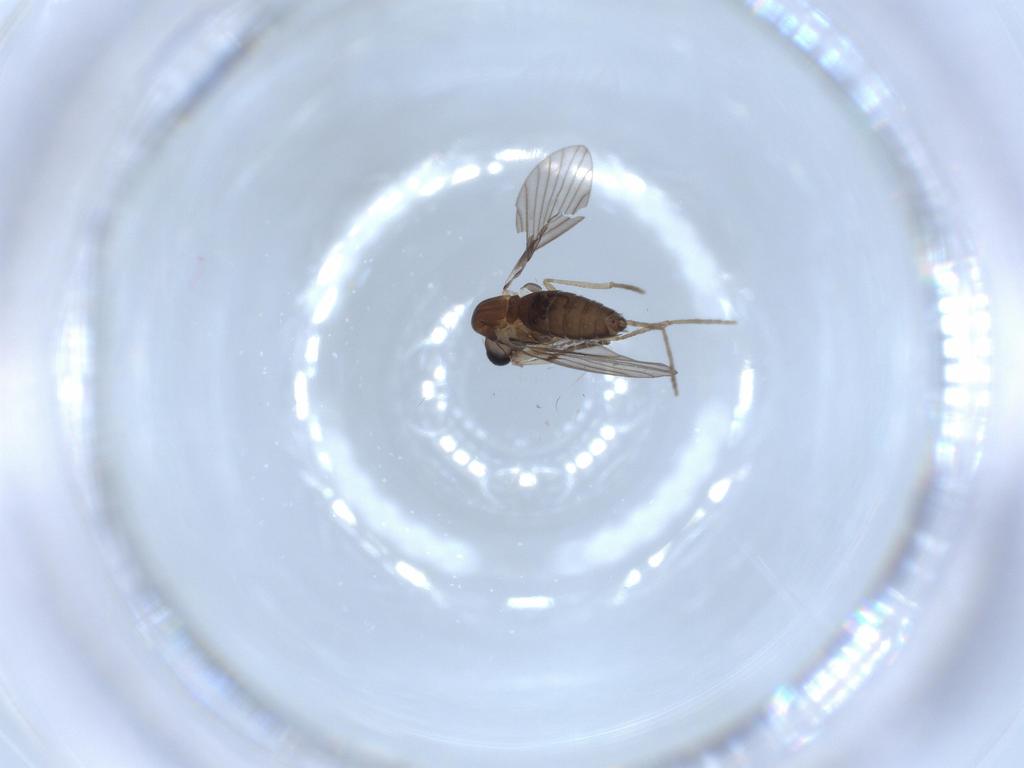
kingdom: Animalia
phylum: Arthropoda
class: Insecta
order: Diptera
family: Psychodidae
